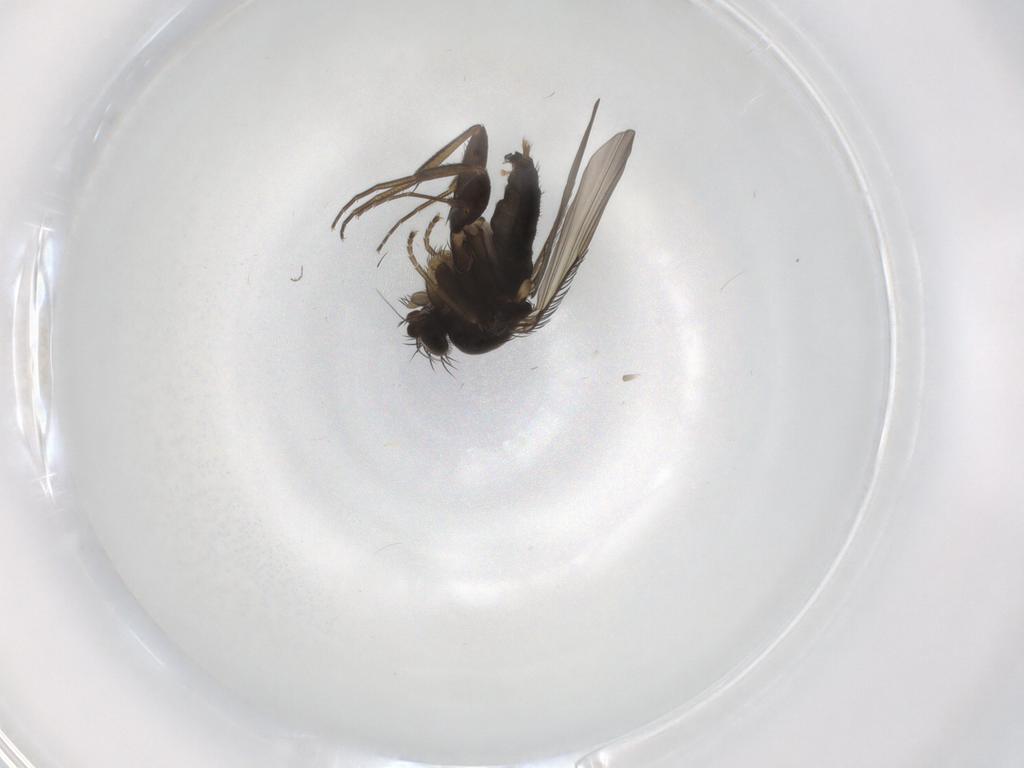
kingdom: Animalia
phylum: Arthropoda
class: Insecta
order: Diptera
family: Phoridae
